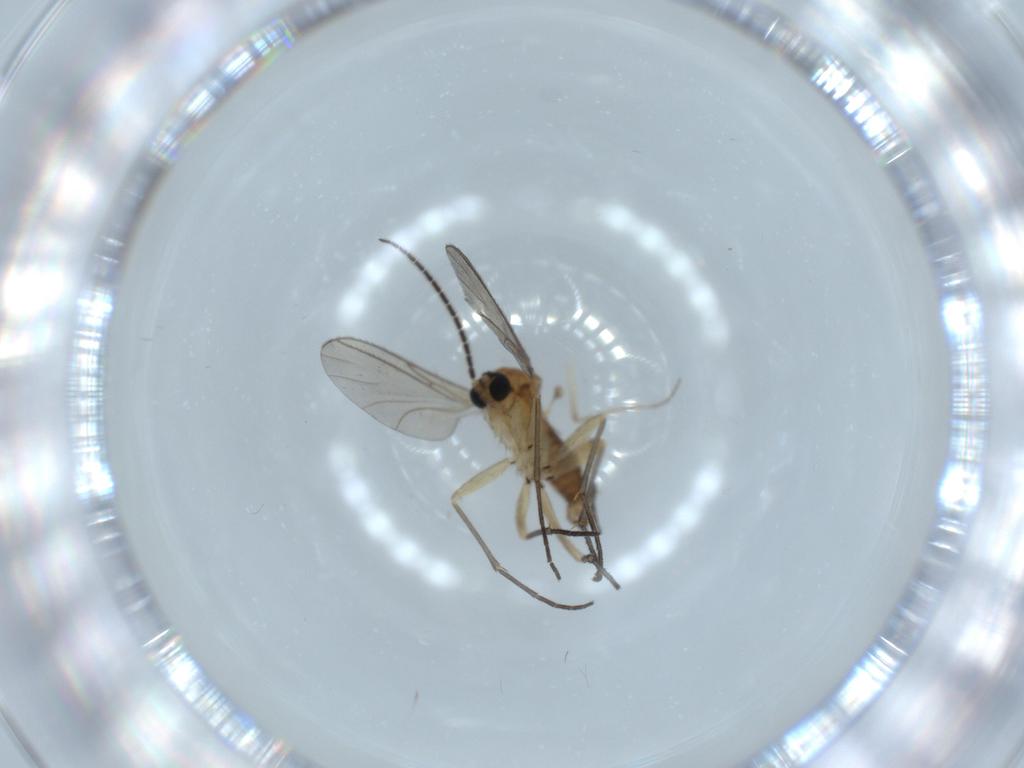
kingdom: Animalia
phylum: Arthropoda
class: Insecta
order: Diptera
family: Sciaridae
